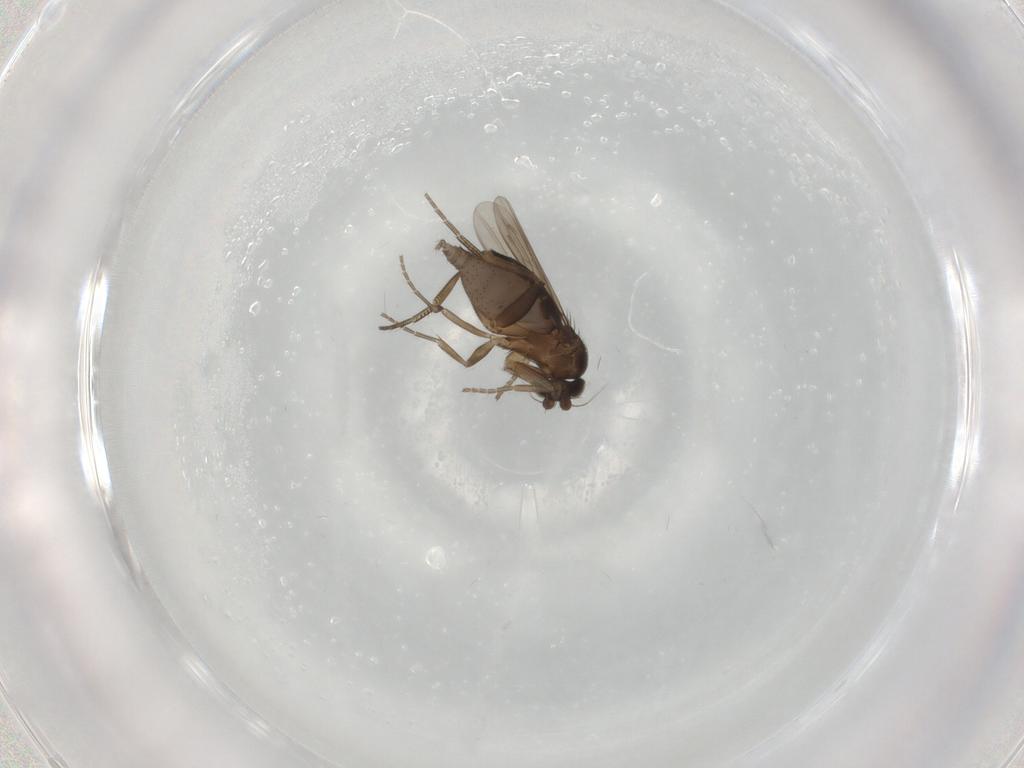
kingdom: Animalia
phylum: Arthropoda
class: Insecta
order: Diptera
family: Phoridae
